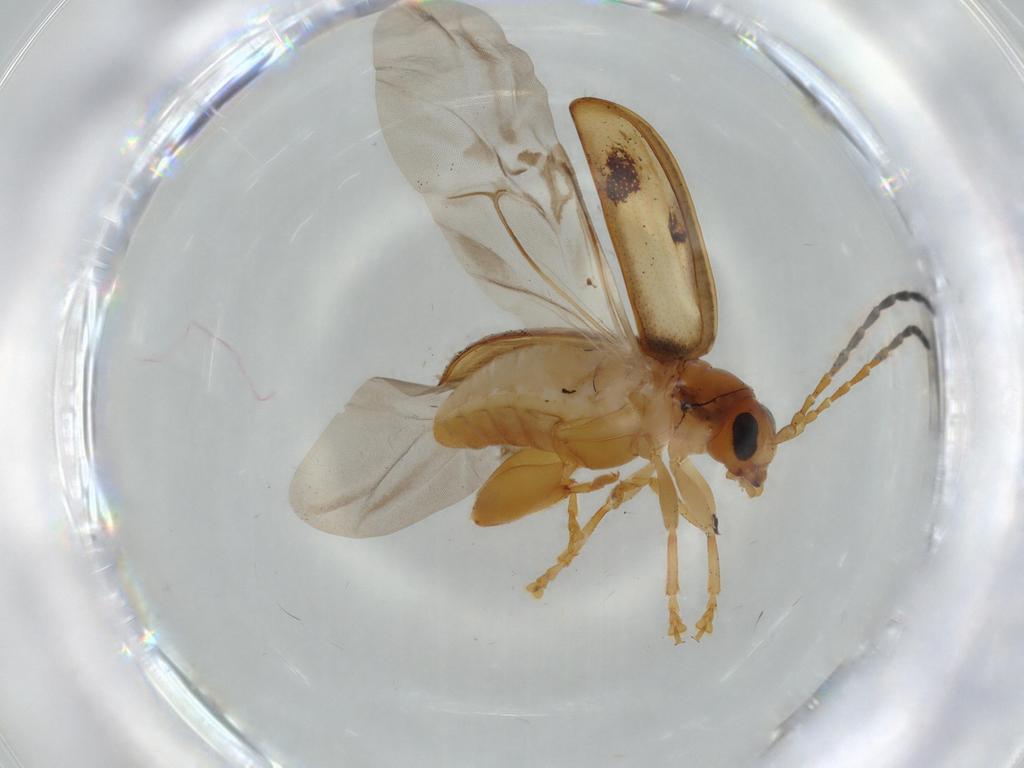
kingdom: Animalia
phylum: Arthropoda
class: Insecta
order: Coleoptera
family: Chrysomelidae
